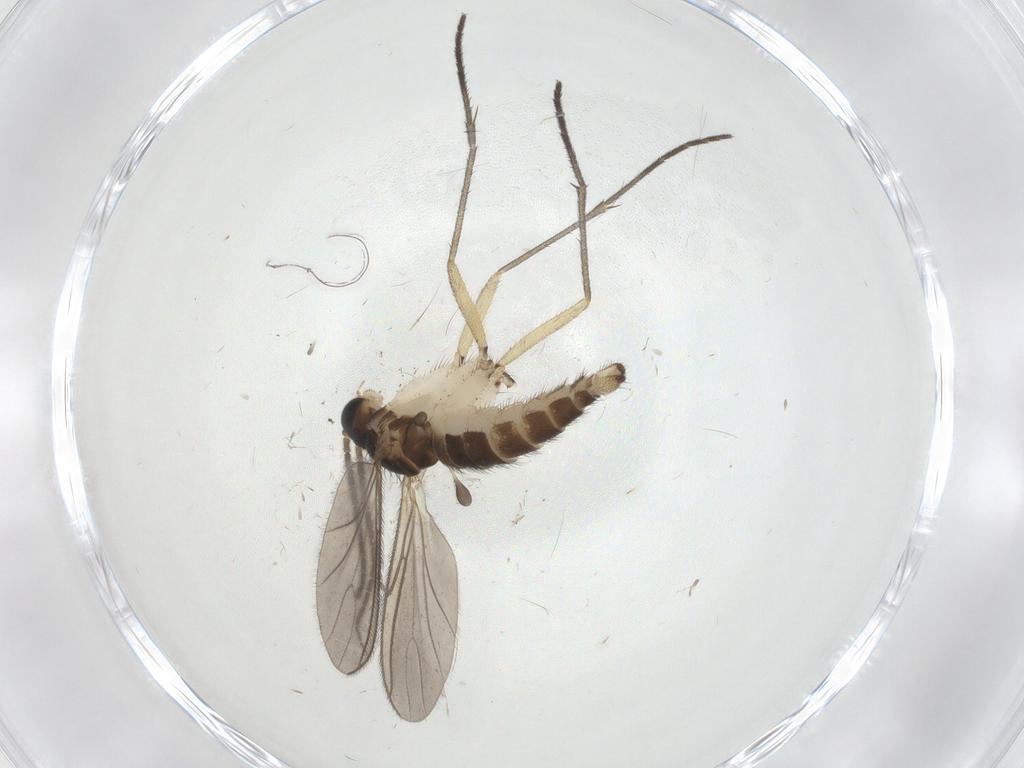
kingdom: Animalia
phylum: Arthropoda
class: Insecta
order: Diptera
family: Sciaridae
